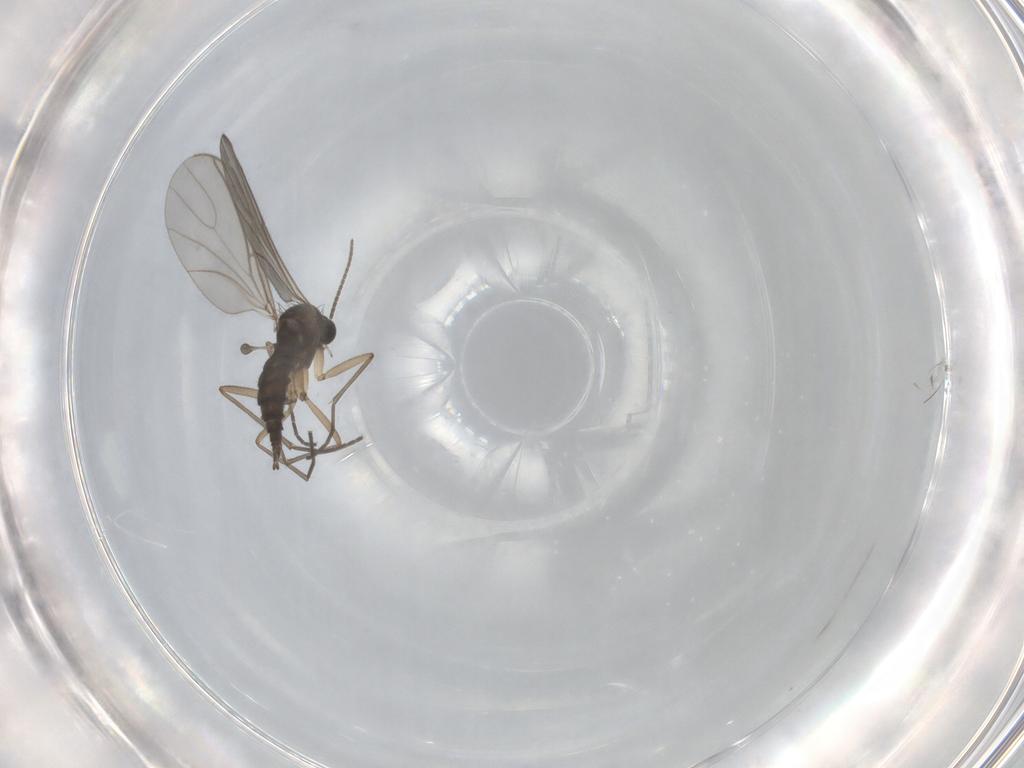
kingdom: Animalia
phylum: Arthropoda
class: Insecta
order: Diptera
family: Sciaridae
